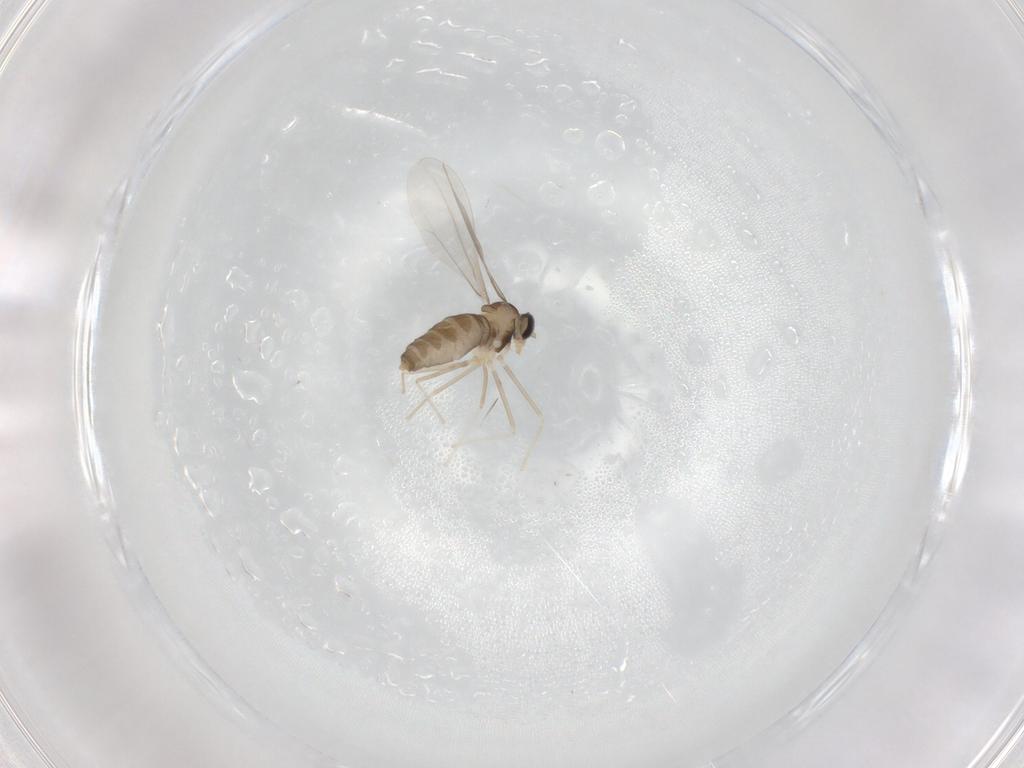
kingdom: Animalia
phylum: Arthropoda
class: Insecta
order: Diptera
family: Cecidomyiidae
